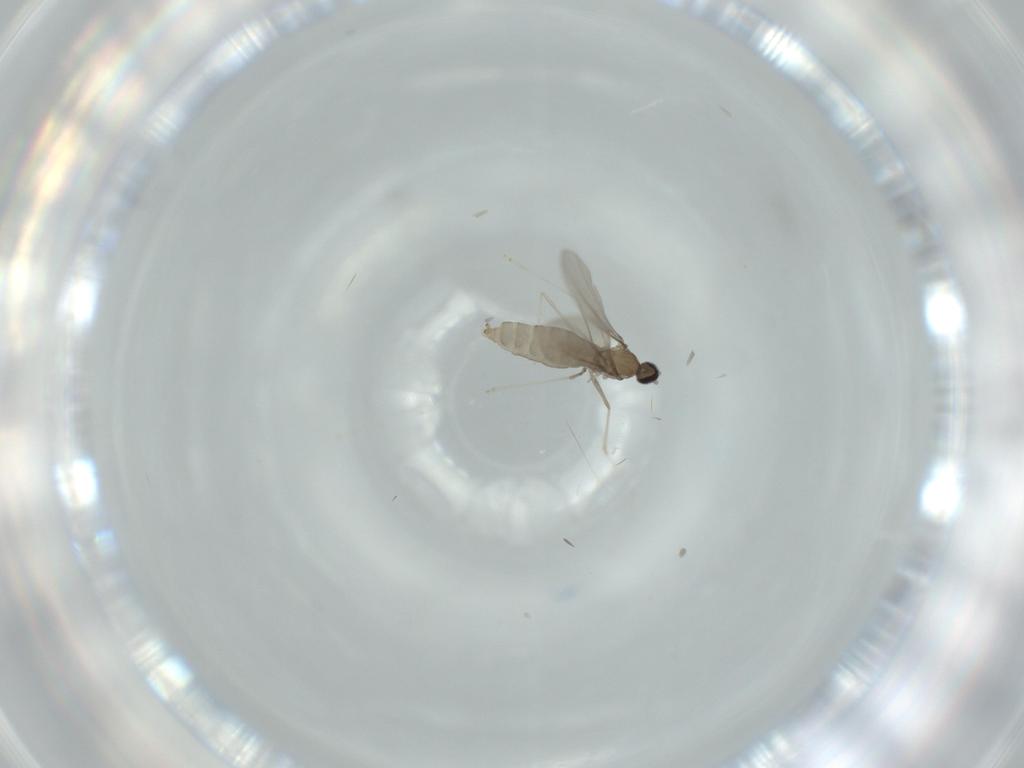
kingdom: Animalia
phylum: Arthropoda
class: Insecta
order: Diptera
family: Cecidomyiidae
